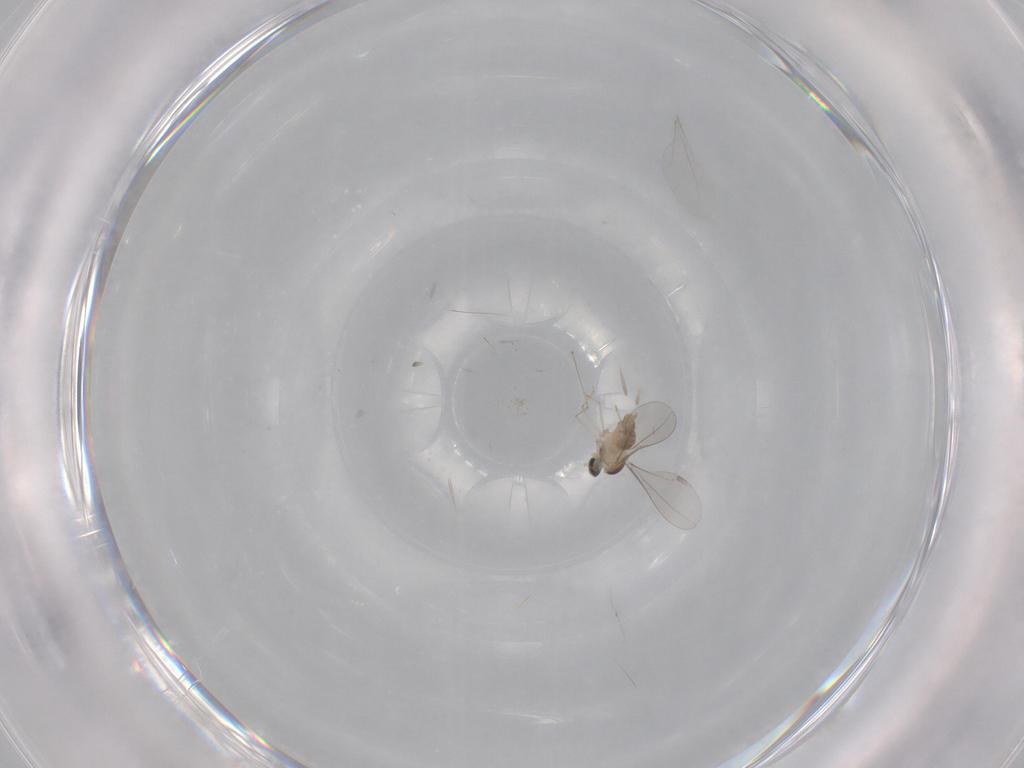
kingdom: Animalia
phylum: Arthropoda
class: Insecta
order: Diptera
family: Cecidomyiidae
